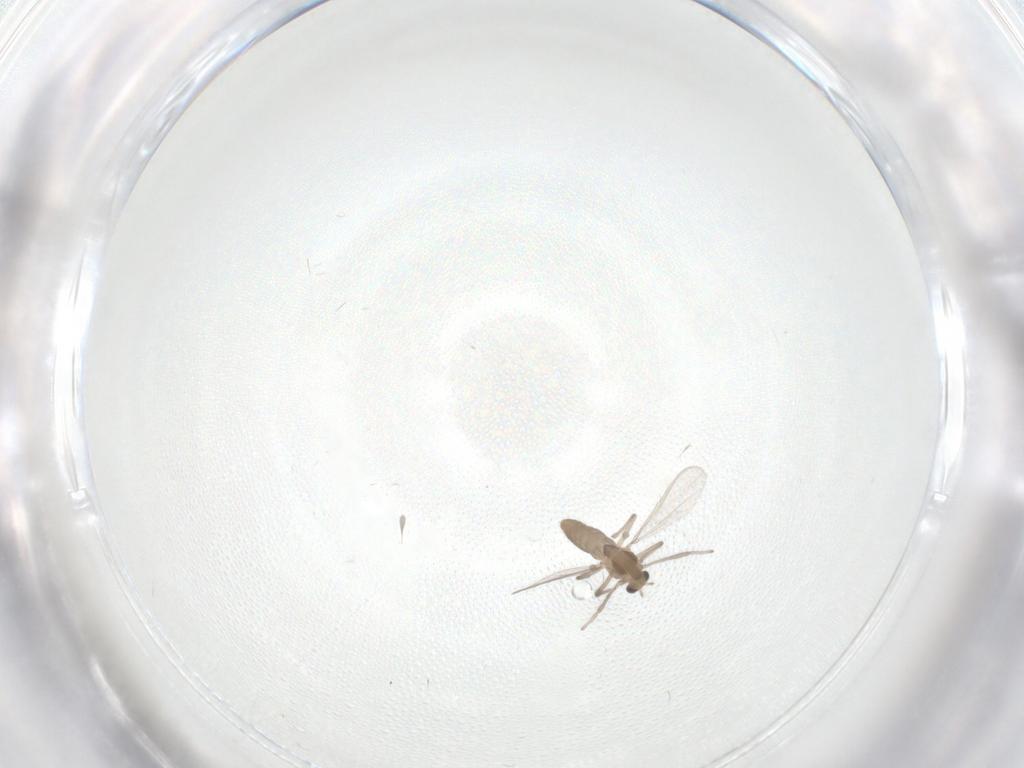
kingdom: Animalia
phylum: Arthropoda
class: Insecta
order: Diptera
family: Chironomidae
